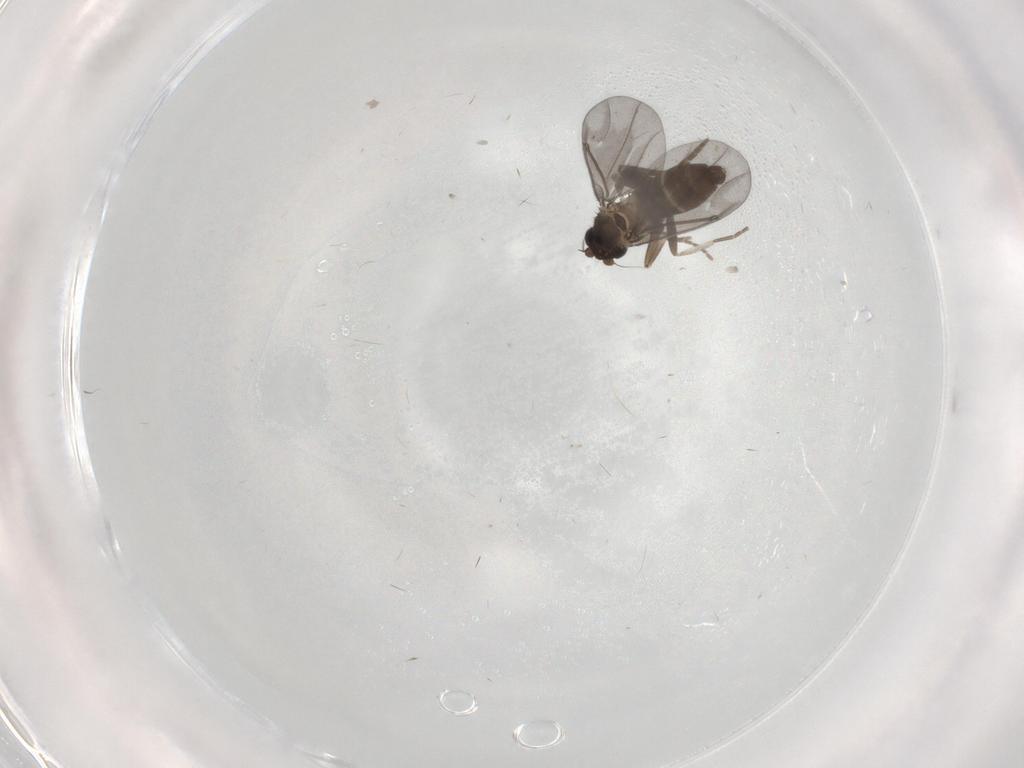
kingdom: Animalia
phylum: Arthropoda
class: Insecta
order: Diptera
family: Phoridae
